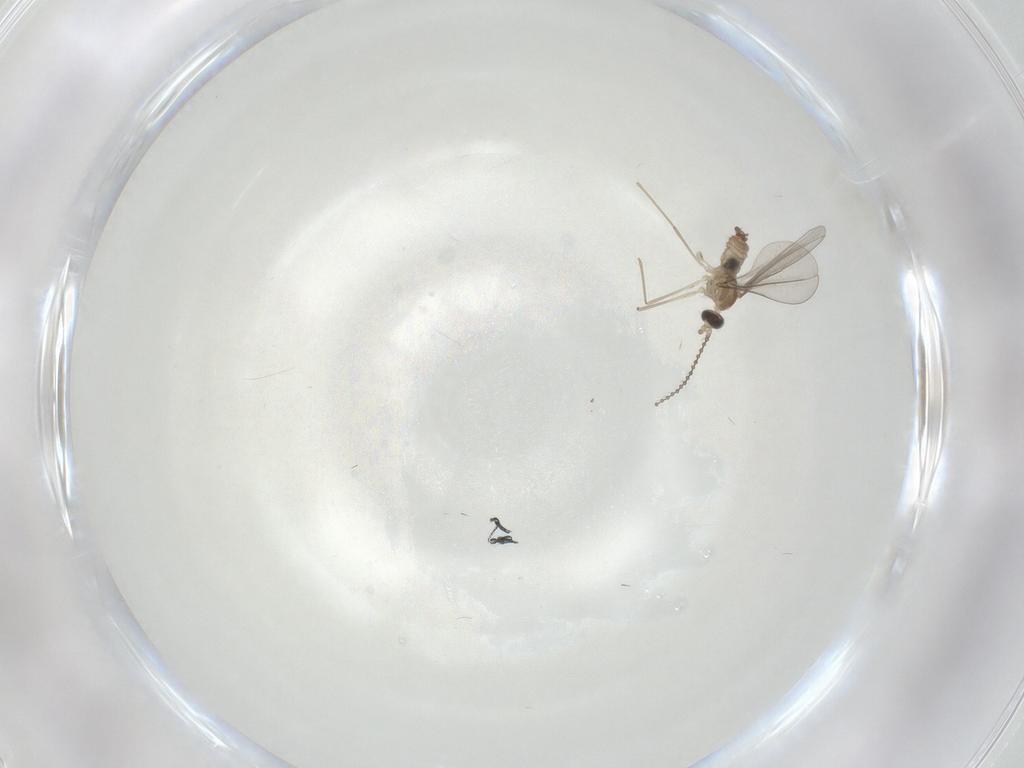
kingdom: Animalia
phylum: Arthropoda
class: Insecta
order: Diptera
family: Cecidomyiidae
